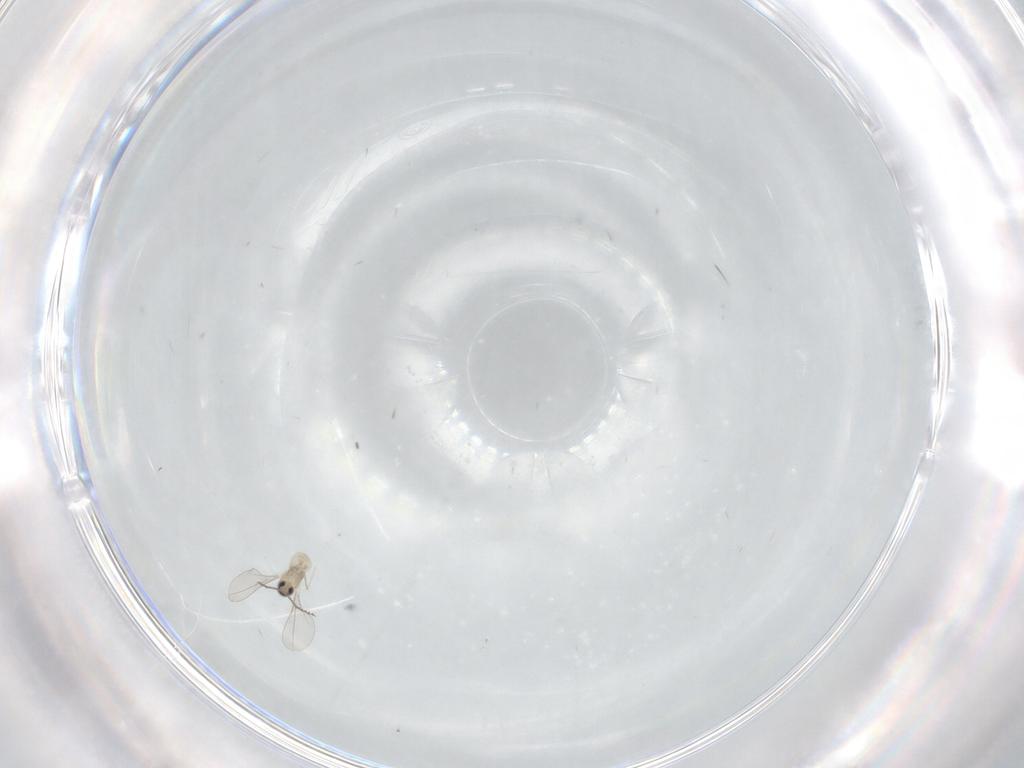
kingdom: Animalia
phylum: Arthropoda
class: Insecta
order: Diptera
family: Cecidomyiidae
